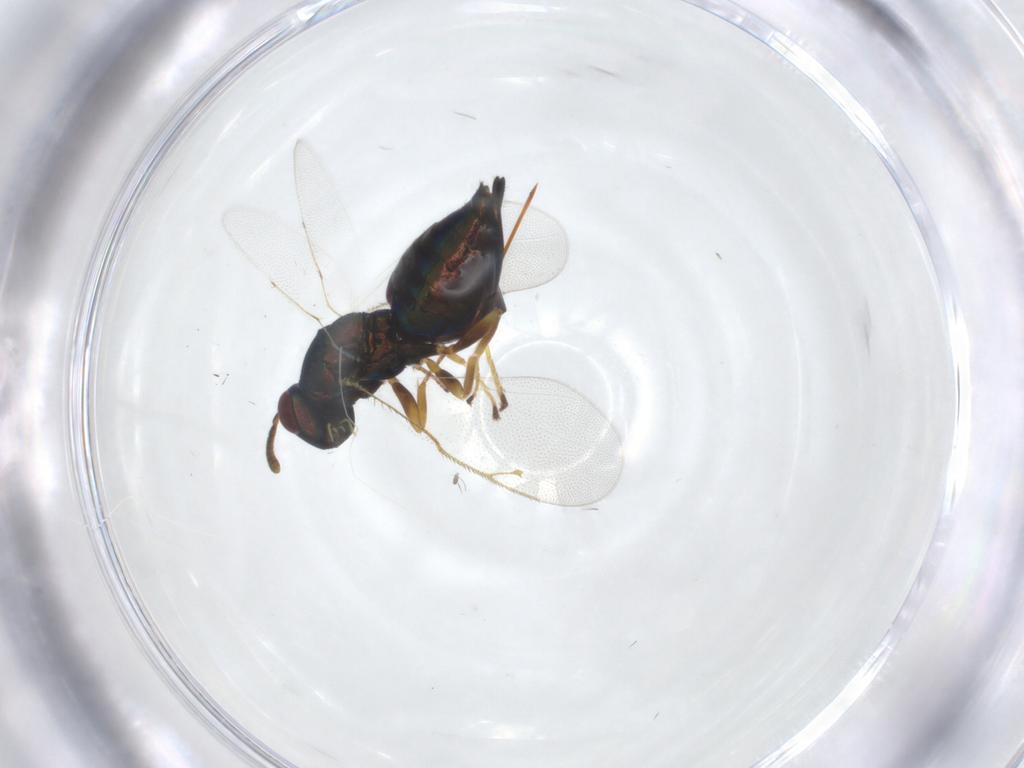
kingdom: Animalia
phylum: Arthropoda
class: Insecta
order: Hymenoptera
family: Pteromalidae
